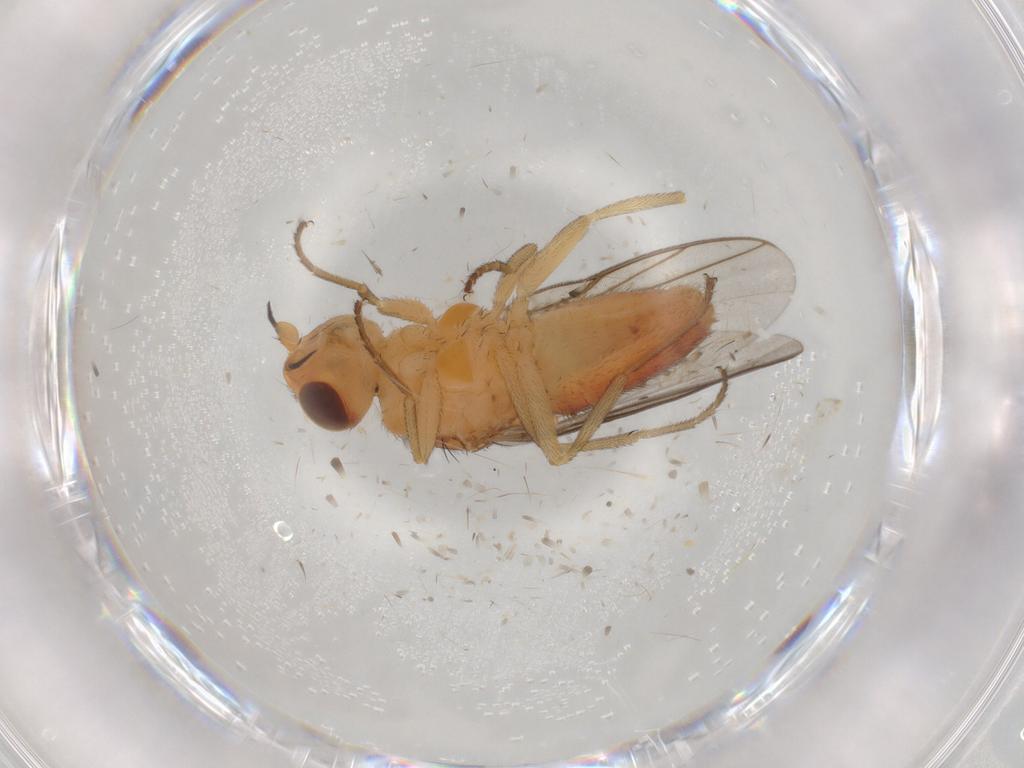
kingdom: Animalia
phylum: Arthropoda
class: Insecta
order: Diptera
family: Chloropidae
